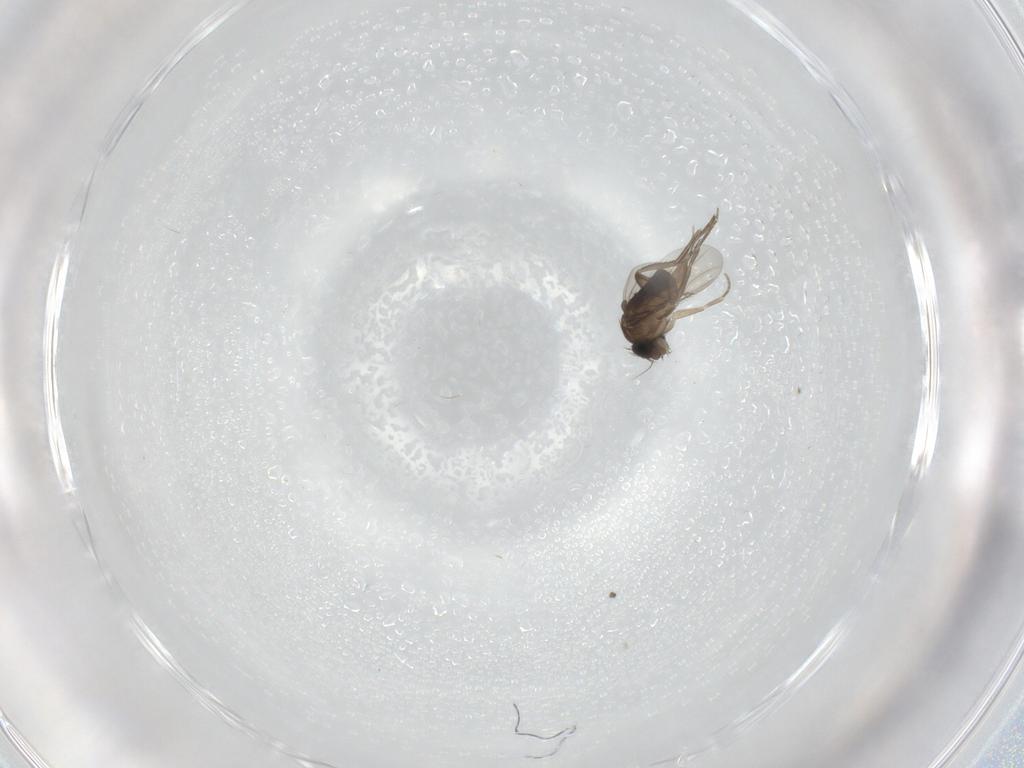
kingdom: Animalia
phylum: Arthropoda
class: Insecta
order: Diptera
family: Phoridae
